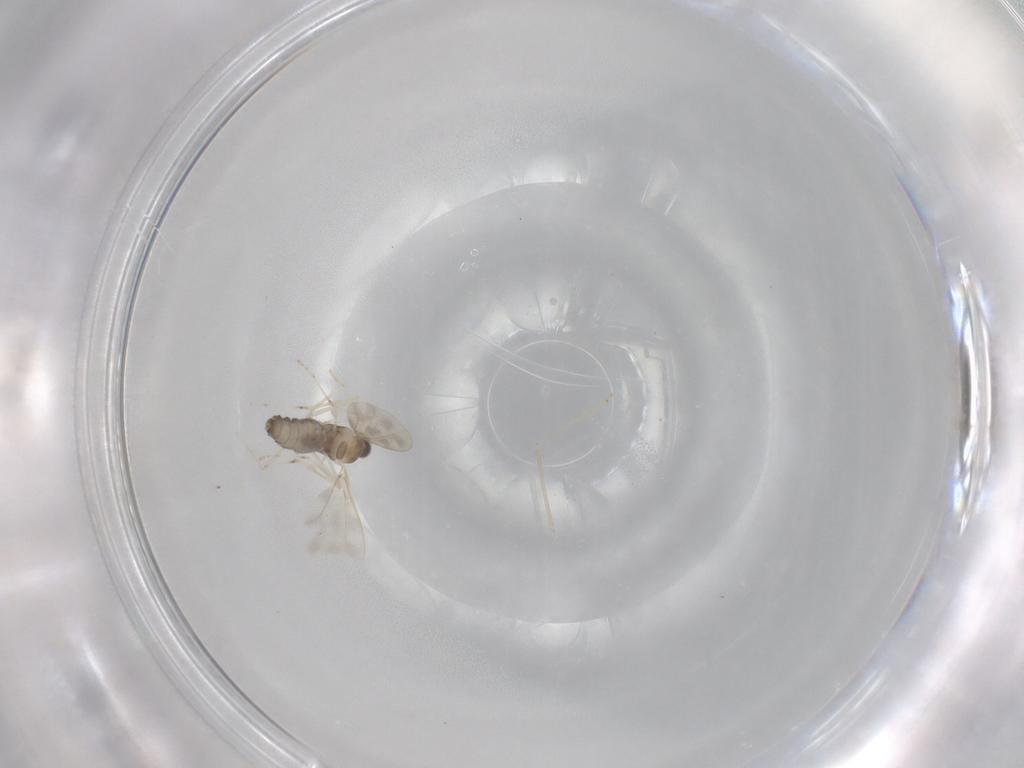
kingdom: Animalia
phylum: Arthropoda
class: Insecta
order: Diptera
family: Cecidomyiidae
